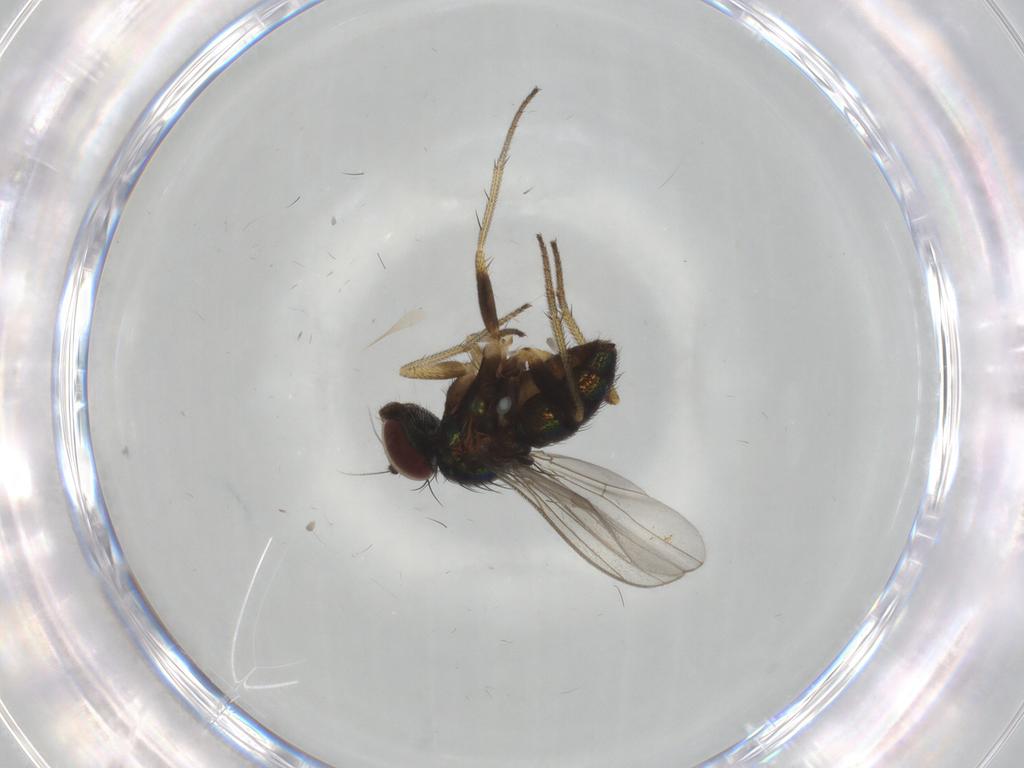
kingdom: Animalia
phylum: Arthropoda
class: Insecta
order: Diptera
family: Dolichopodidae
